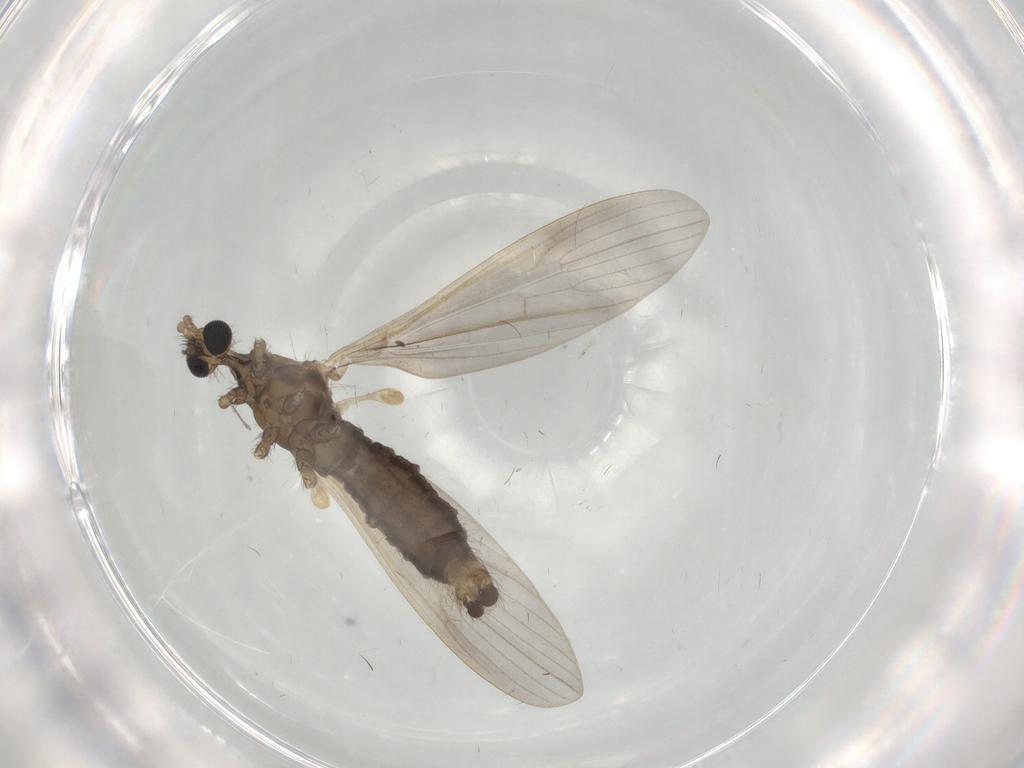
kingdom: Animalia
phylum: Arthropoda
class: Insecta
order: Diptera
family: Limoniidae
